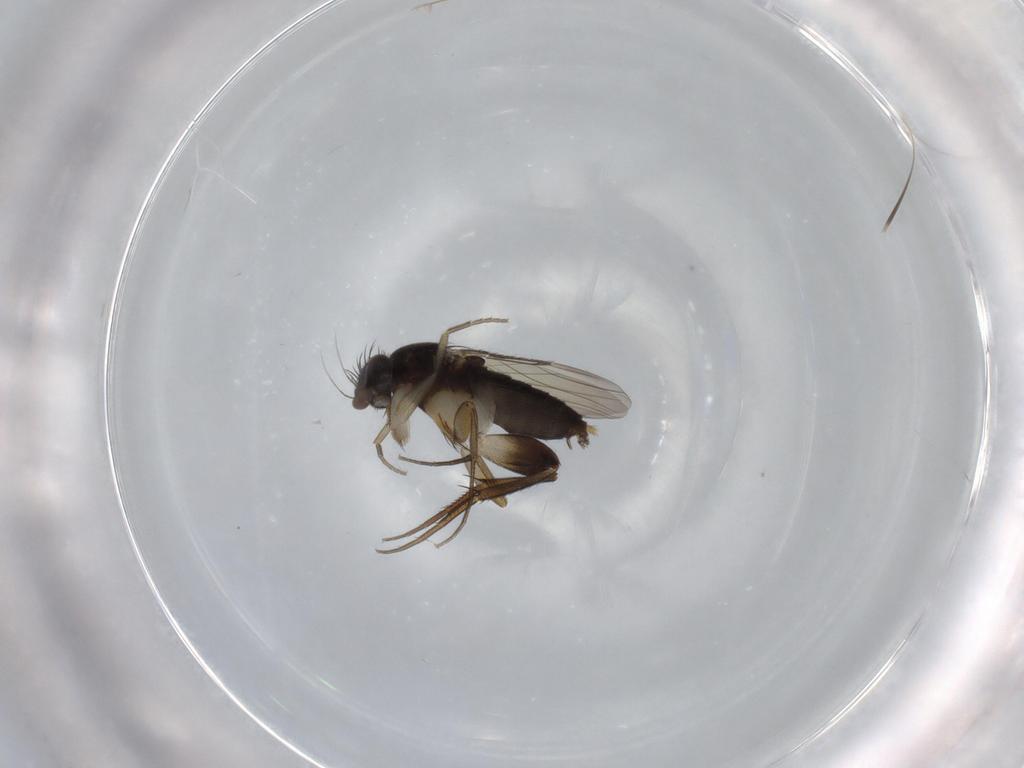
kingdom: Animalia
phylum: Arthropoda
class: Insecta
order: Diptera
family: Phoridae
